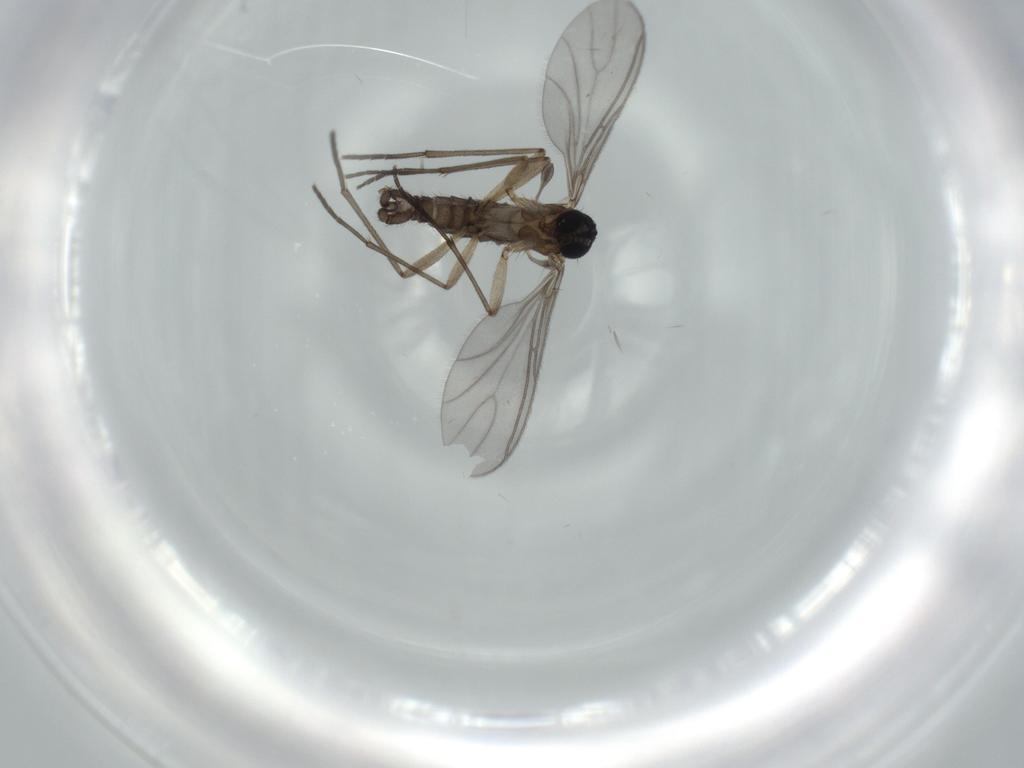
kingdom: Animalia
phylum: Arthropoda
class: Insecta
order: Diptera
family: Sciaridae
